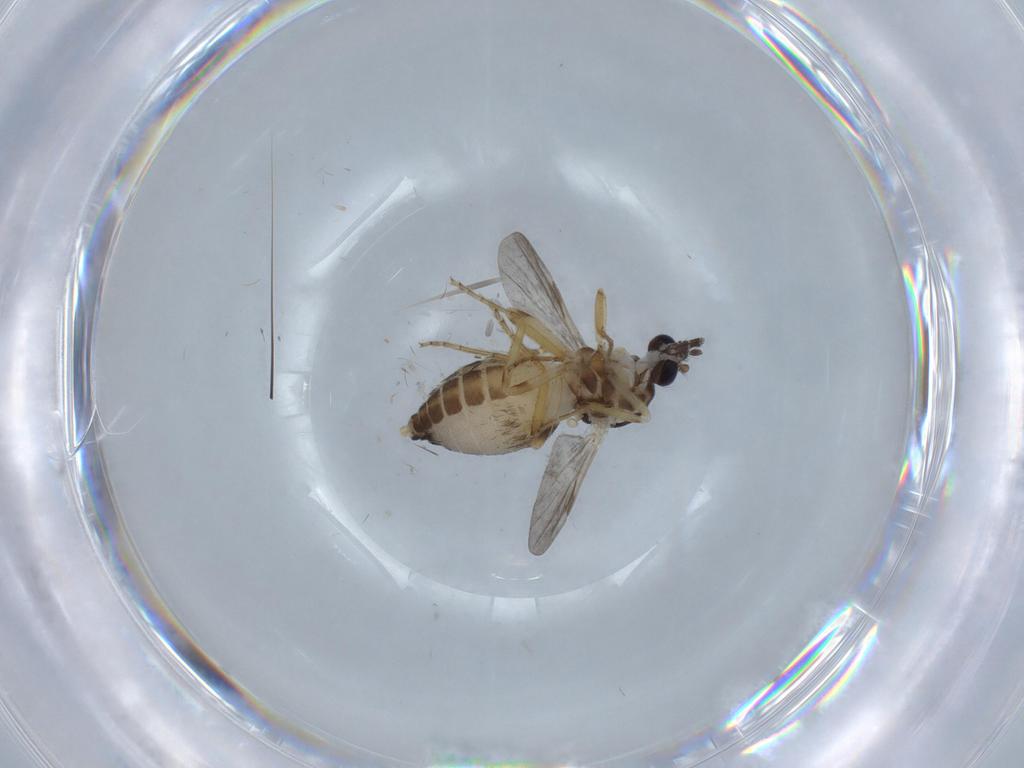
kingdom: Animalia
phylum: Arthropoda
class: Insecta
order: Diptera
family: Ceratopogonidae
